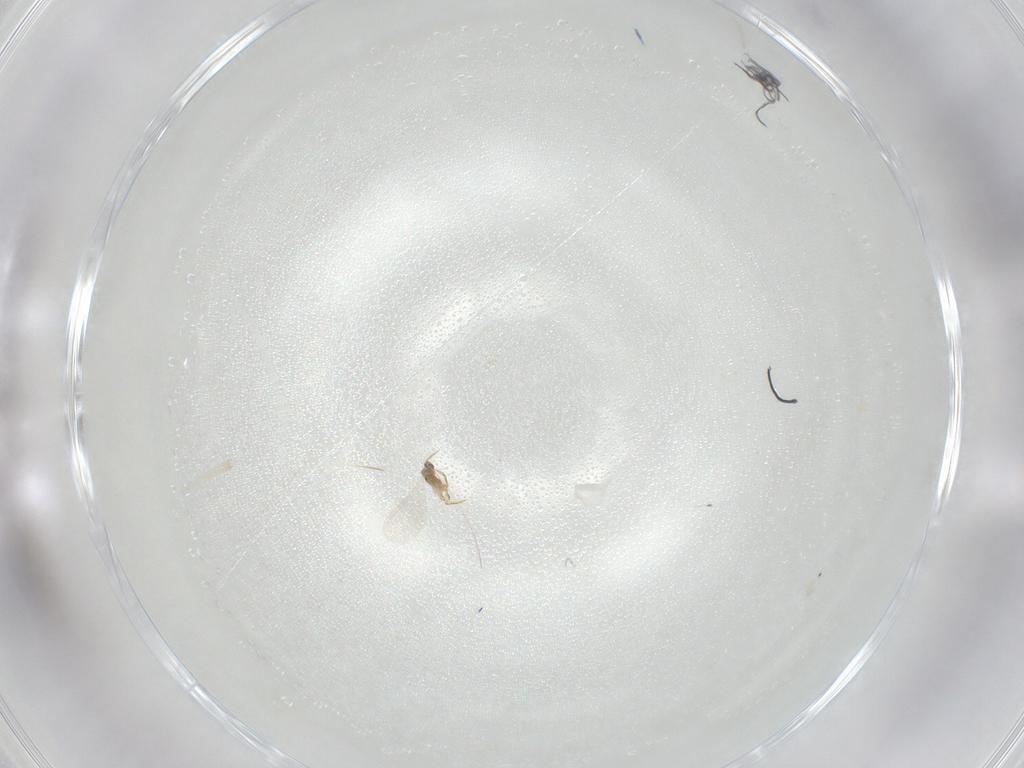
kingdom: Animalia
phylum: Arthropoda
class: Insecta
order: Hemiptera
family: Diaspididae
